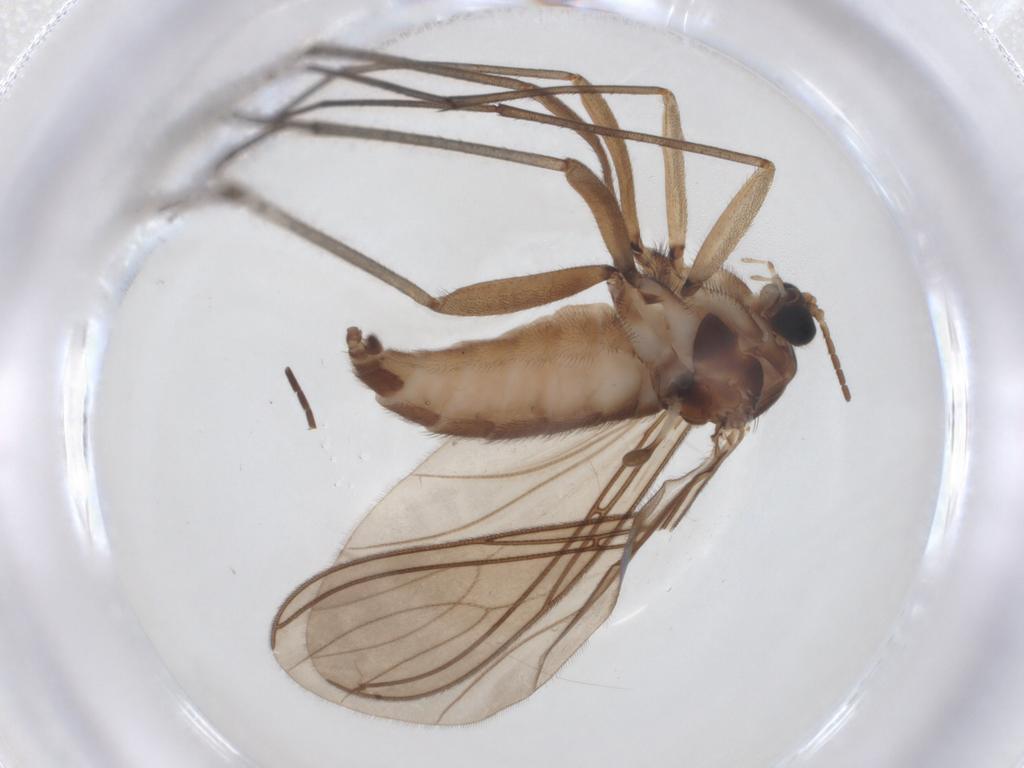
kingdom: Animalia
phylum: Arthropoda
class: Insecta
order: Diptera
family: Sciaridae
